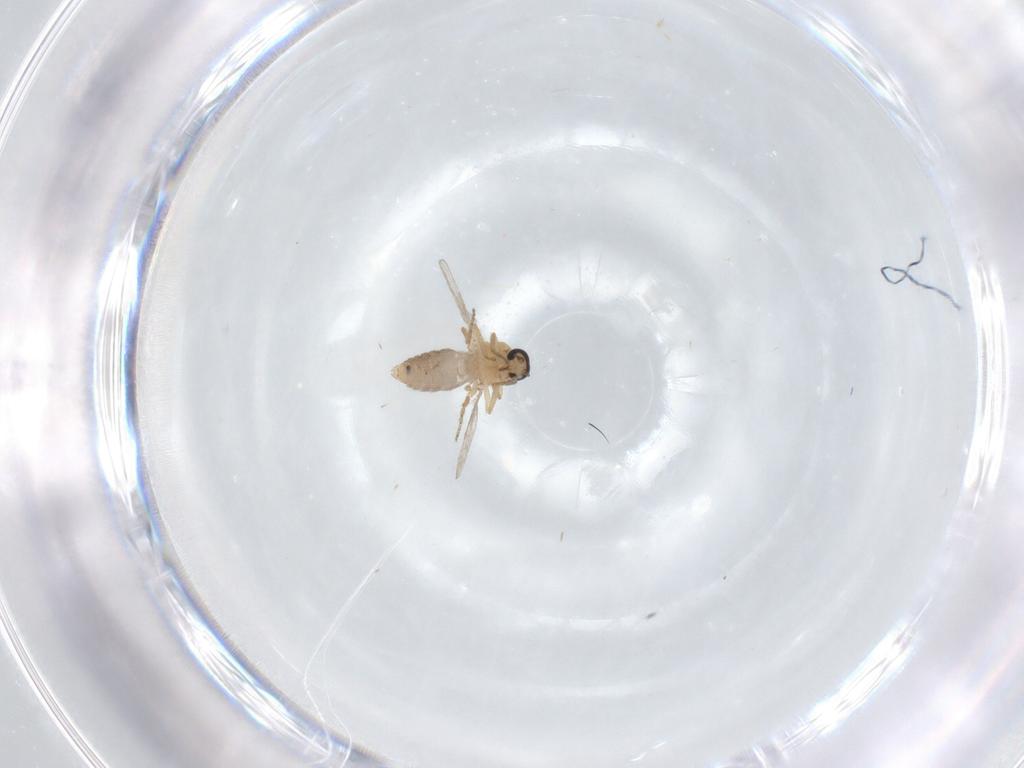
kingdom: Animalia
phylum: Arthropoda
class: Insecta
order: Diptera
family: Ceratopogonidae
